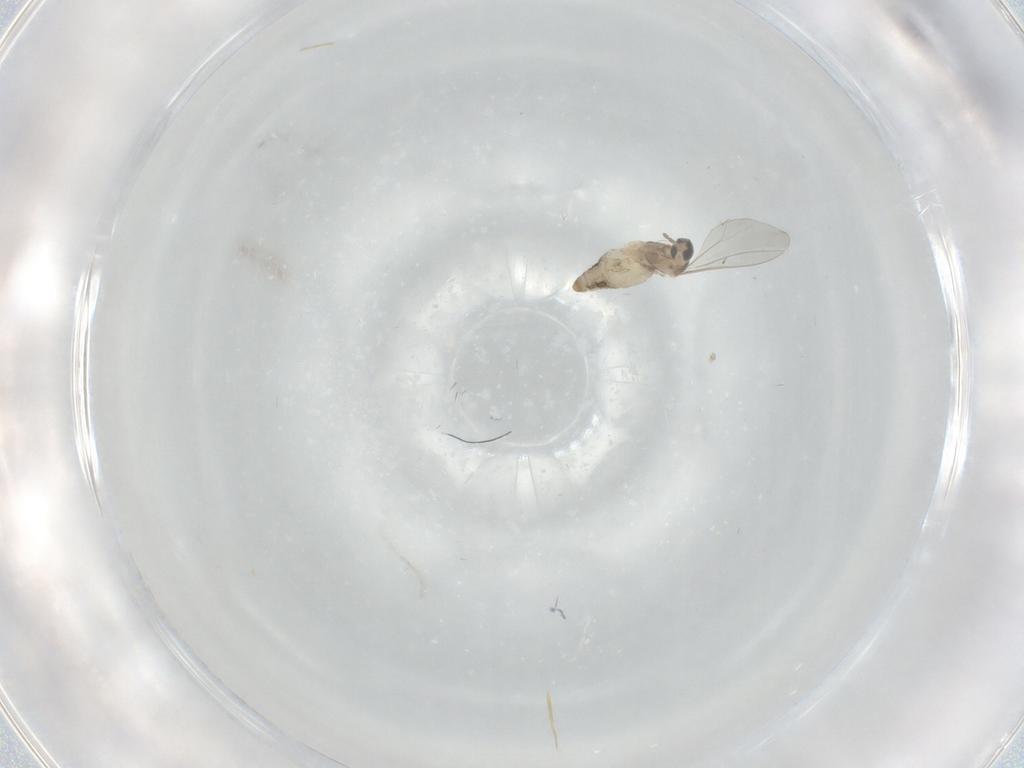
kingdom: Animalia
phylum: Arthropoda
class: Insecta
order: Diptera
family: Cecidomyiidae
